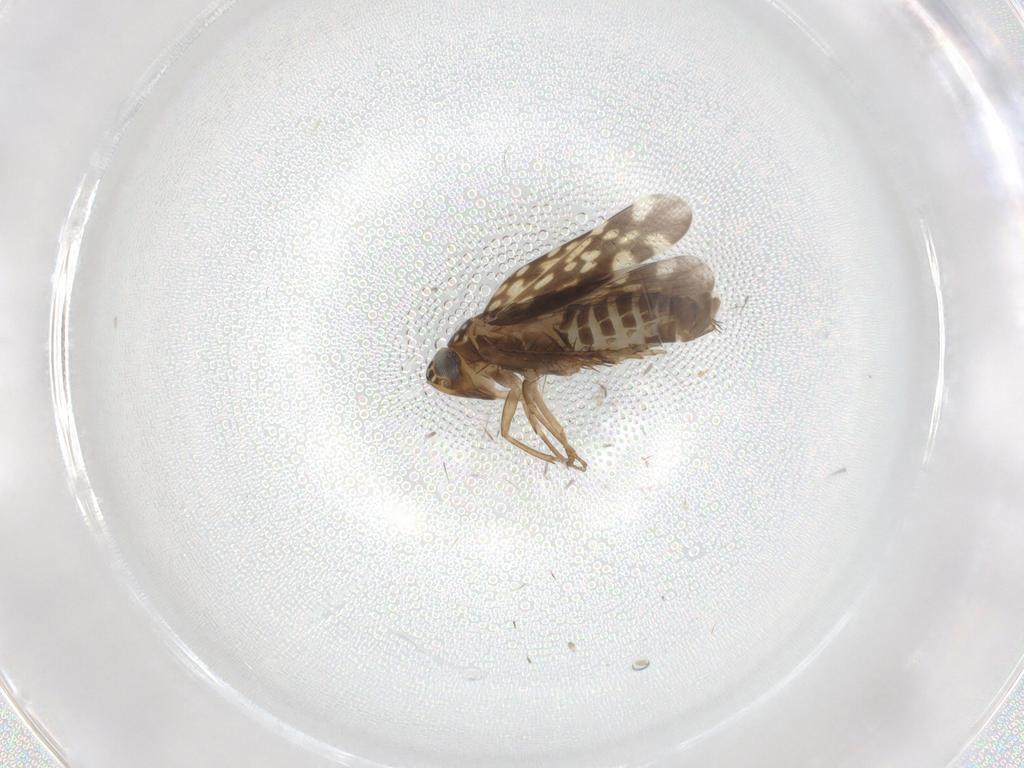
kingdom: Animalia
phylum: Arthropoda
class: Insecta
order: Hemiptera
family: Cicadellidae
